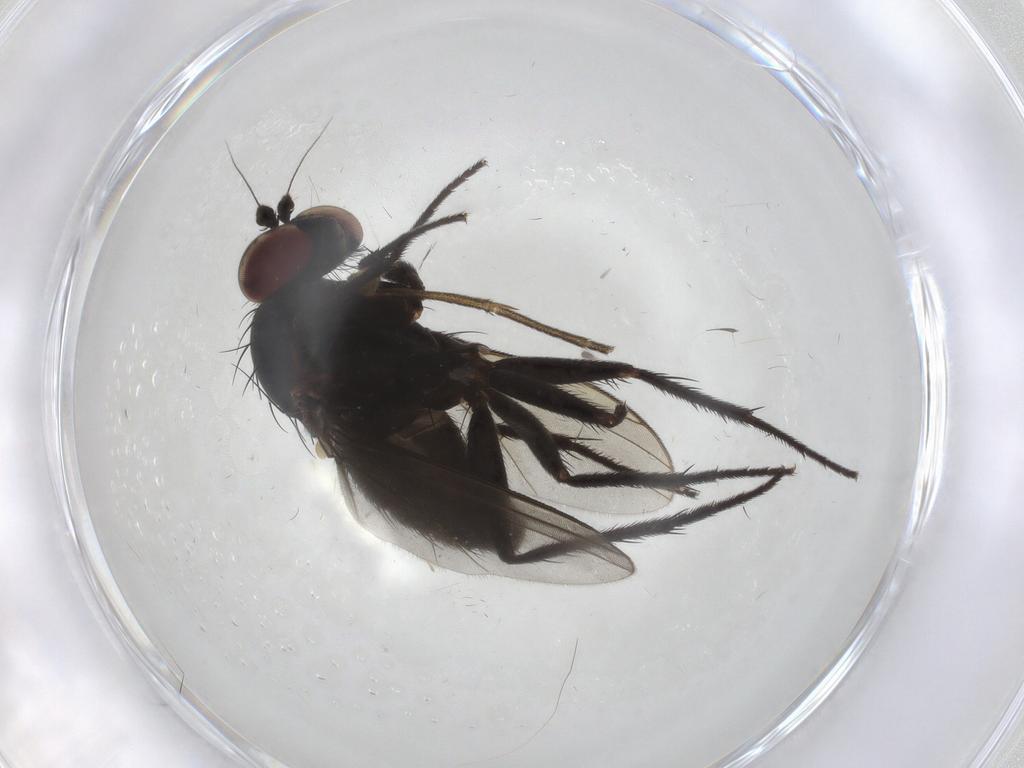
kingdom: Animalia
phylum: Arthropoda
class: Insecta
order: Diptera
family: Dolichopodidae
